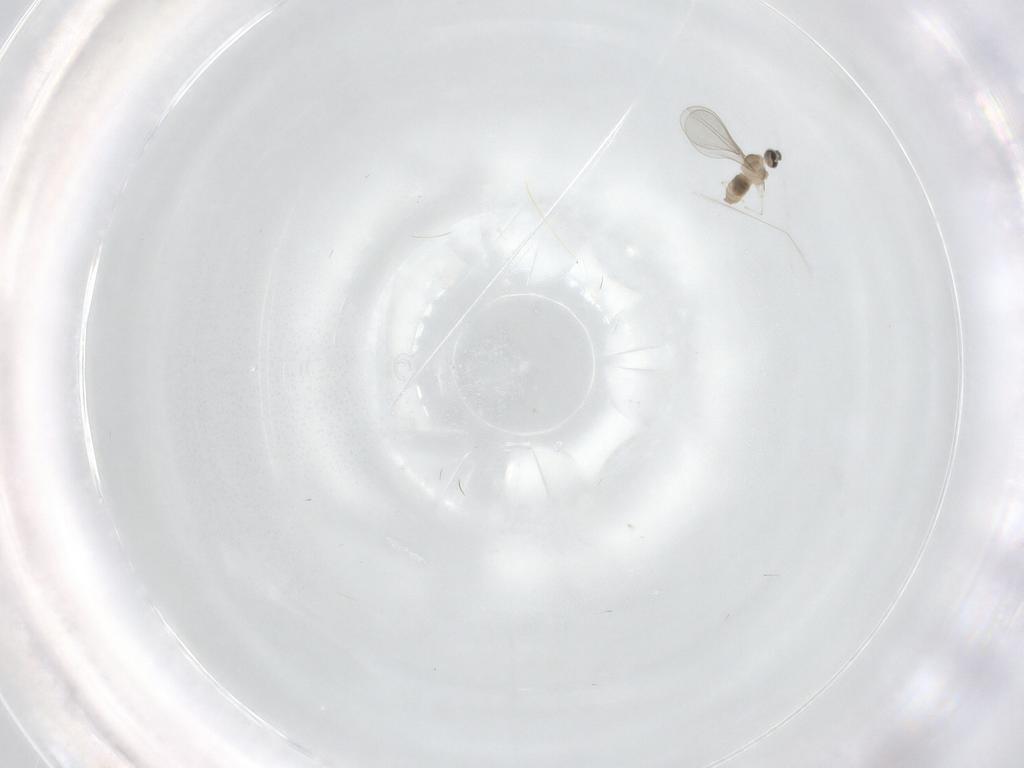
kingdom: Animalia
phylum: Arthropoda
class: Insecta
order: Diptera
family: Cecidomyiidae
